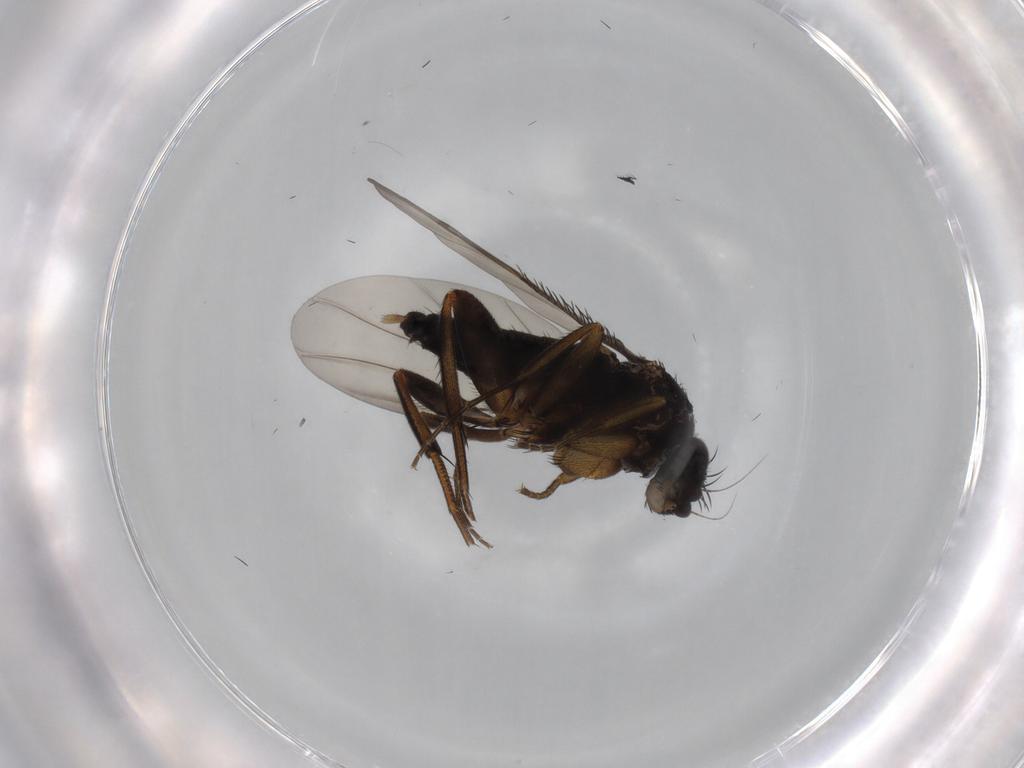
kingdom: Animalia
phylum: Arthropoda
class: Insecta
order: Diptera
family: Phoridae
